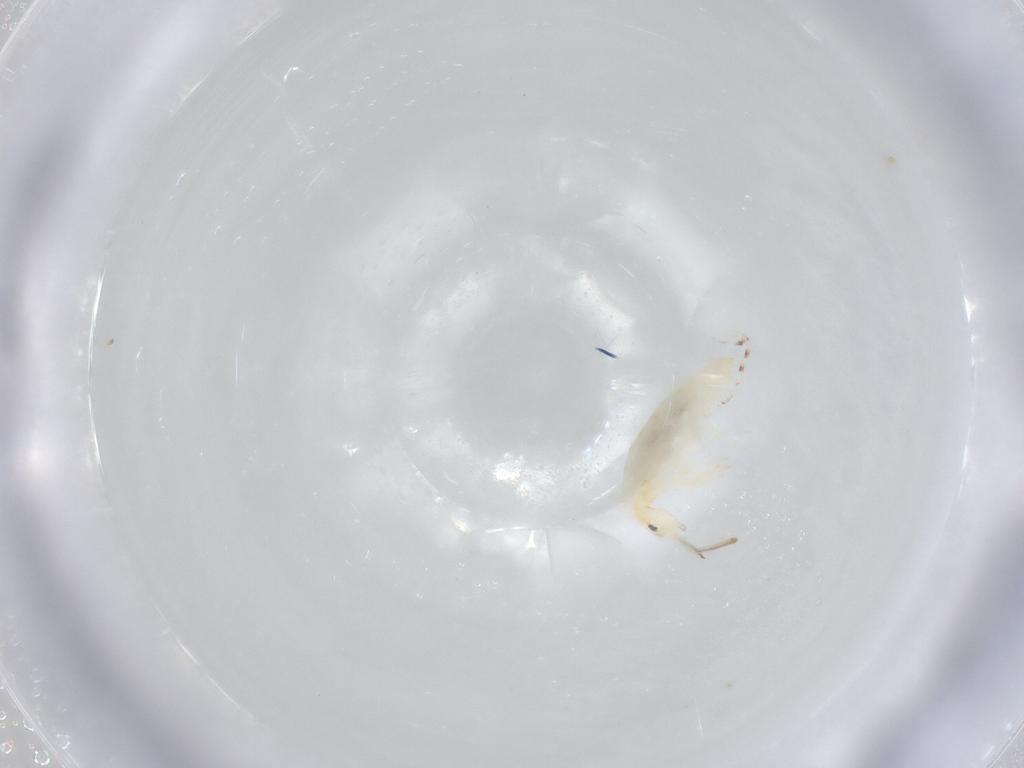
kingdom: Animalia
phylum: Arthropoda
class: Collembola
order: Entomobryomorpha
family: Entomobryidae
